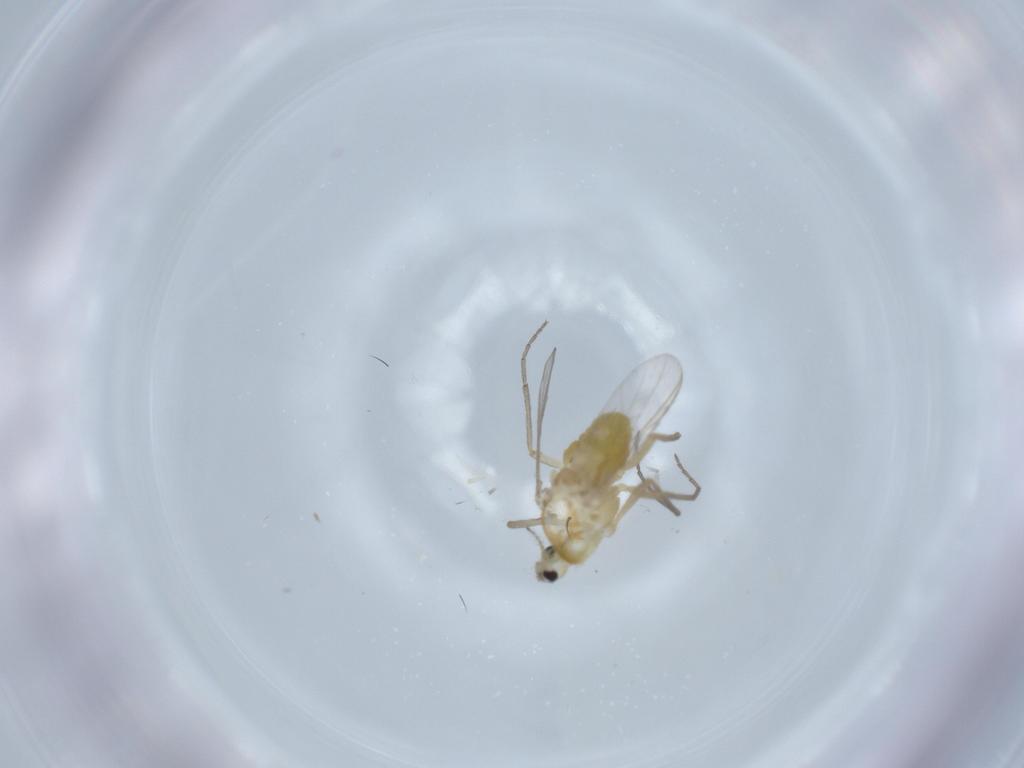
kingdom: Animalia
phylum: Arthropoda
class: Insecta
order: Diptera
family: Chironomidae
